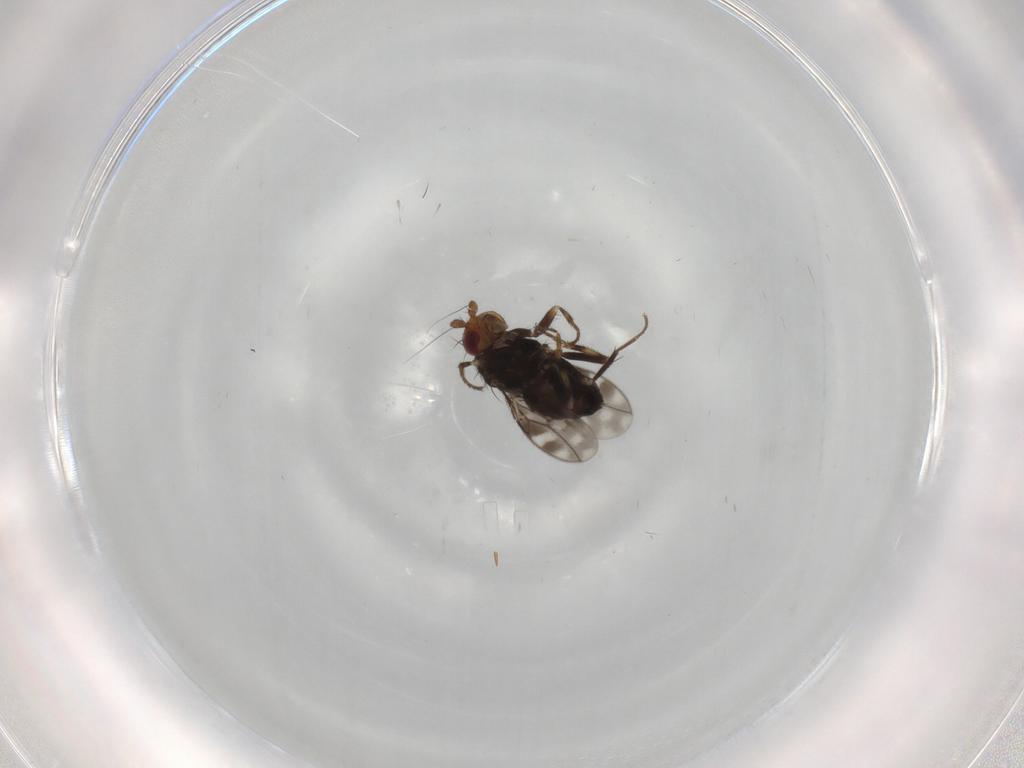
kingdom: Animalia
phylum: Arthropoda
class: Insecta
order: Diptera
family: Sphaeroceridae
